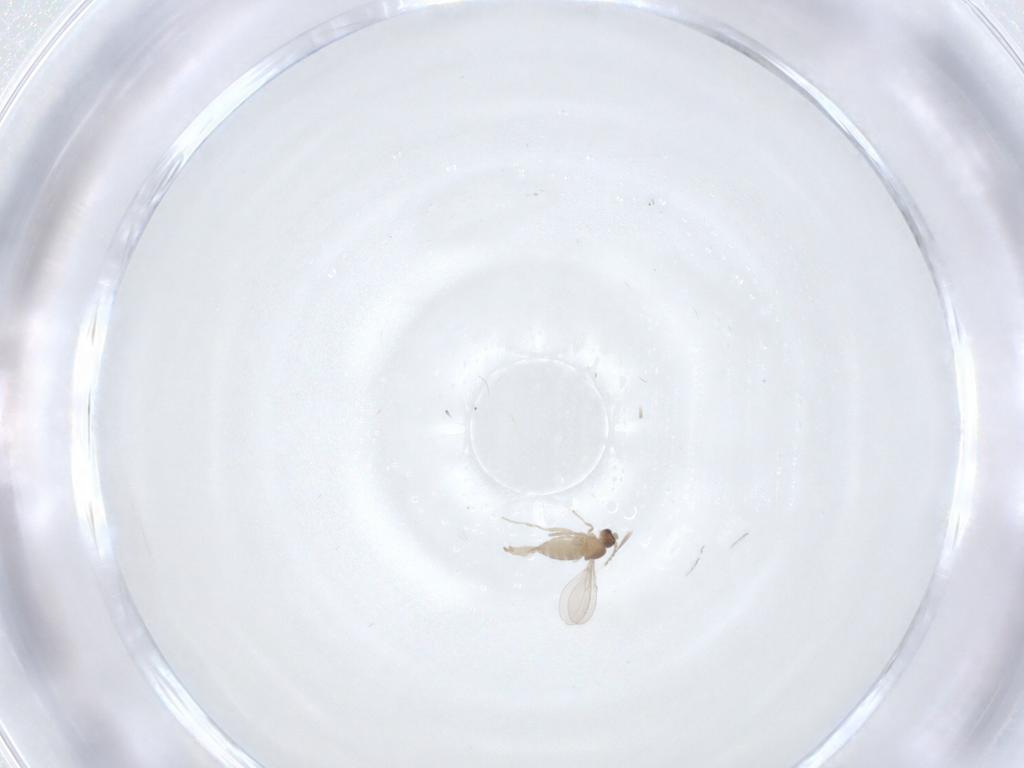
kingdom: Animalia
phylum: Arthropoda
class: Insecta
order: Diptera
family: Cecidomyiidae
